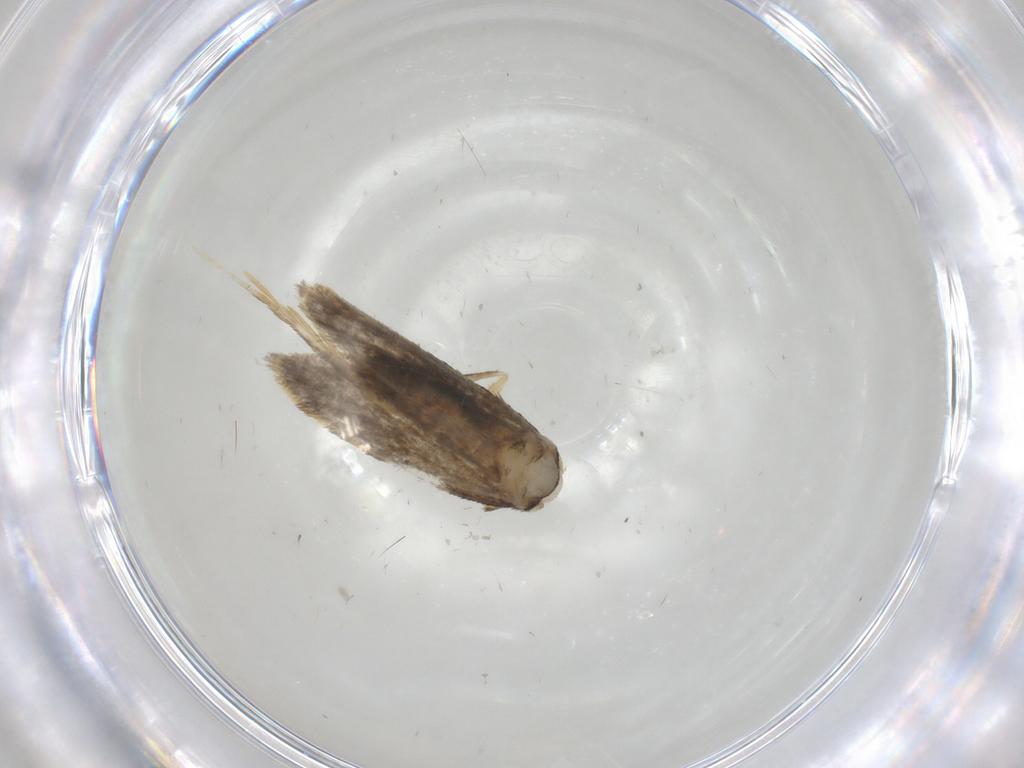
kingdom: Animalia
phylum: Arthropoda
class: Insecta
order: Lepidoptera
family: Psychidae
